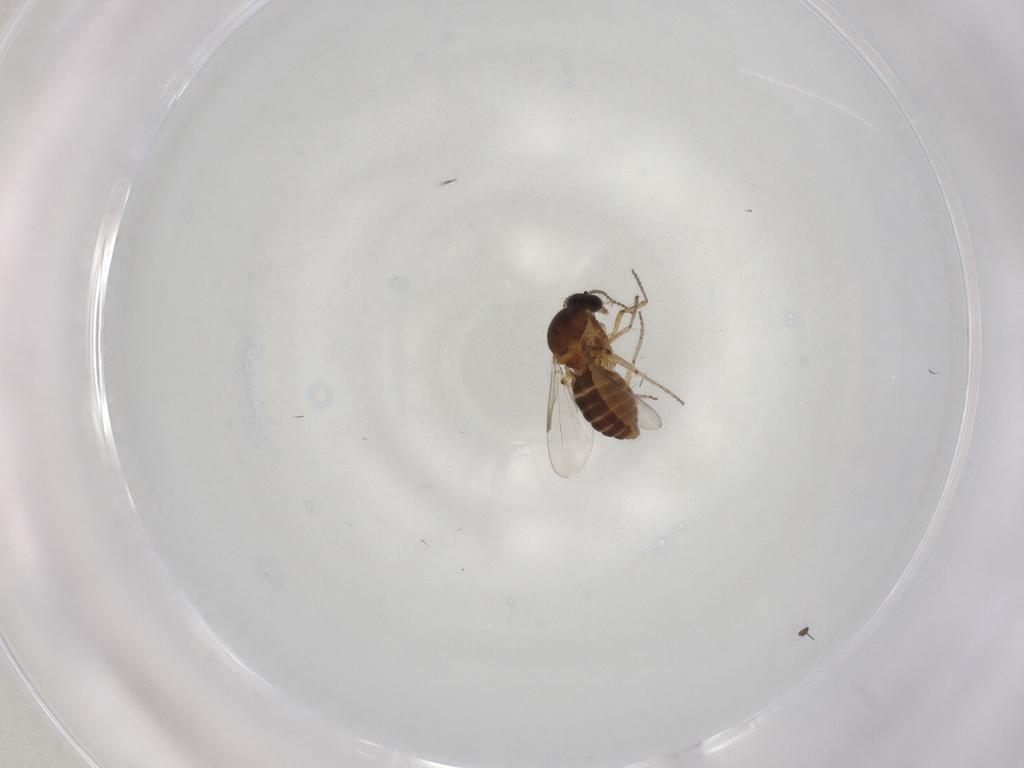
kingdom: Animalia
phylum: Arthropoda
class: Insecta
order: Diptera
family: Ceratopogonidae
